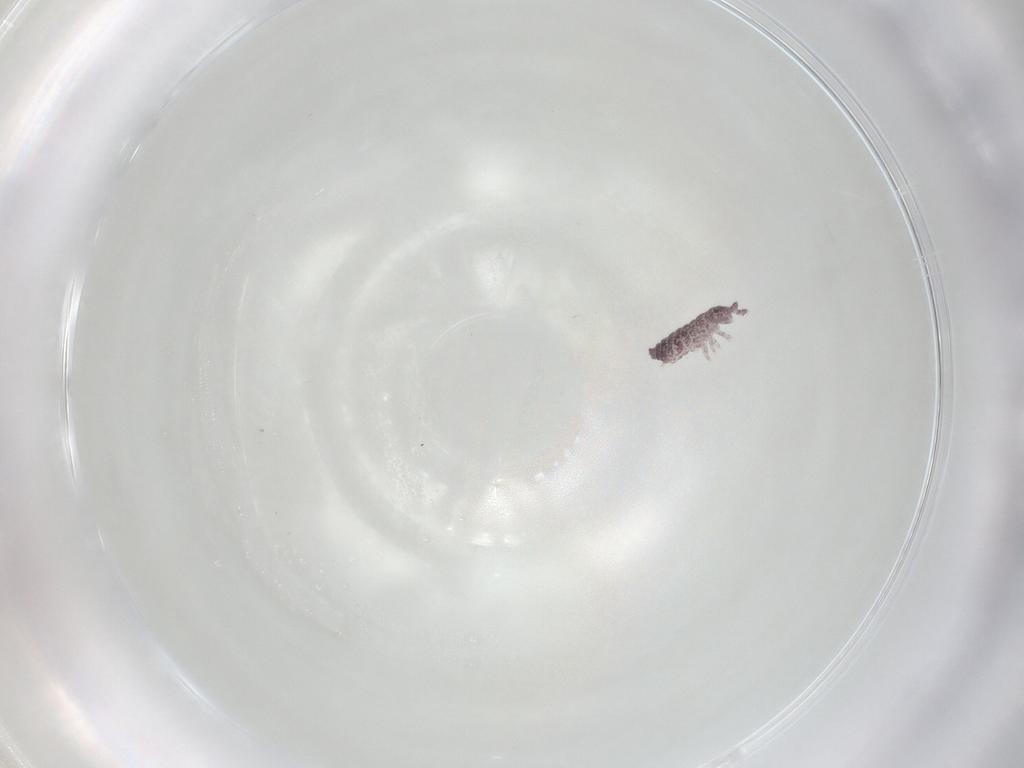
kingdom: Animalia
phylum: Arthropoda
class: Collembola
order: Poduromorpha
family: Hypogastruridae
